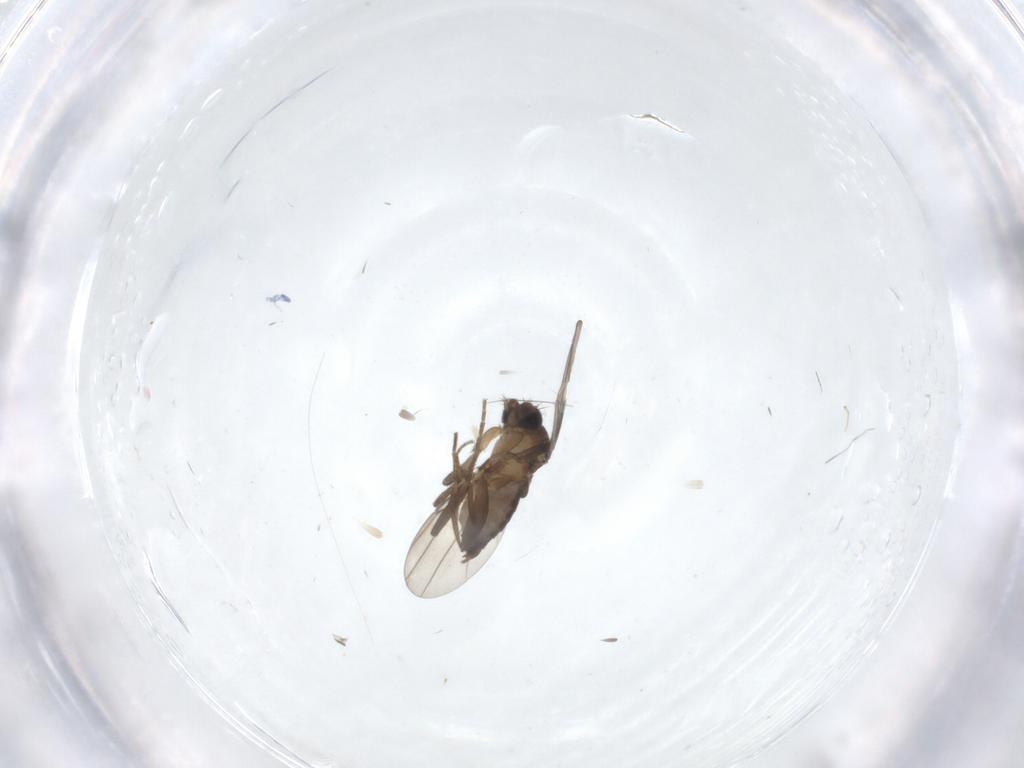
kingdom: Animalia
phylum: Arthropoda
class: Insecta
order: Diptera
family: Phoridae
